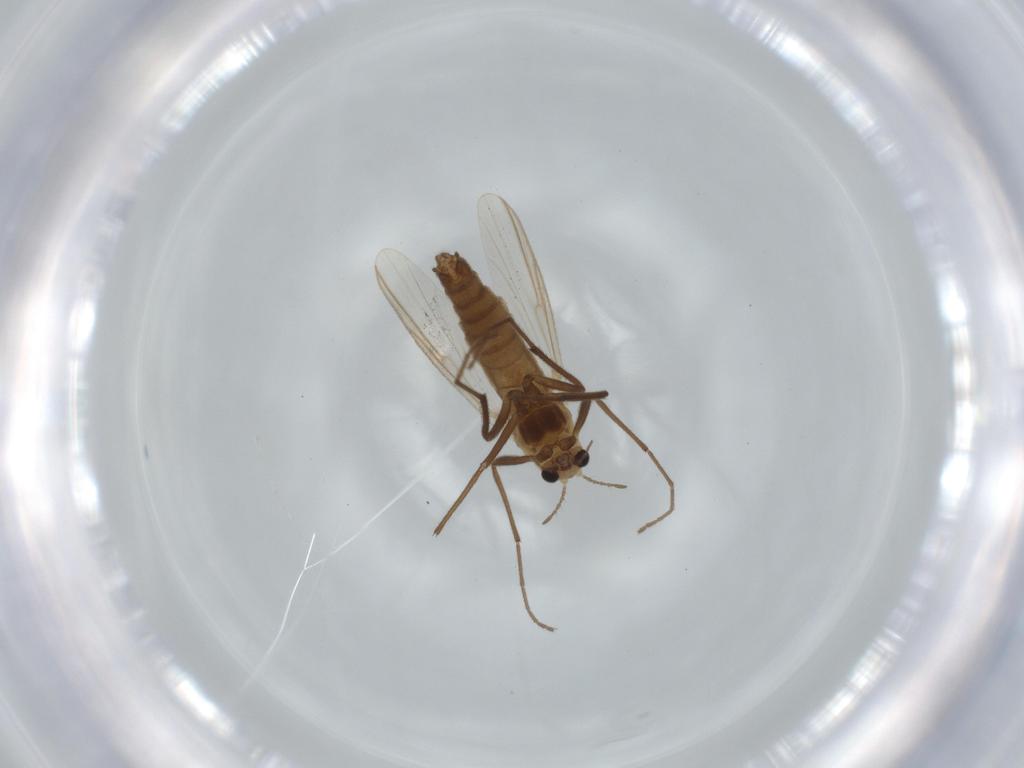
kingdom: Animalia
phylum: Arthropoda
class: Insecta
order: Diptera
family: Chironomidae
